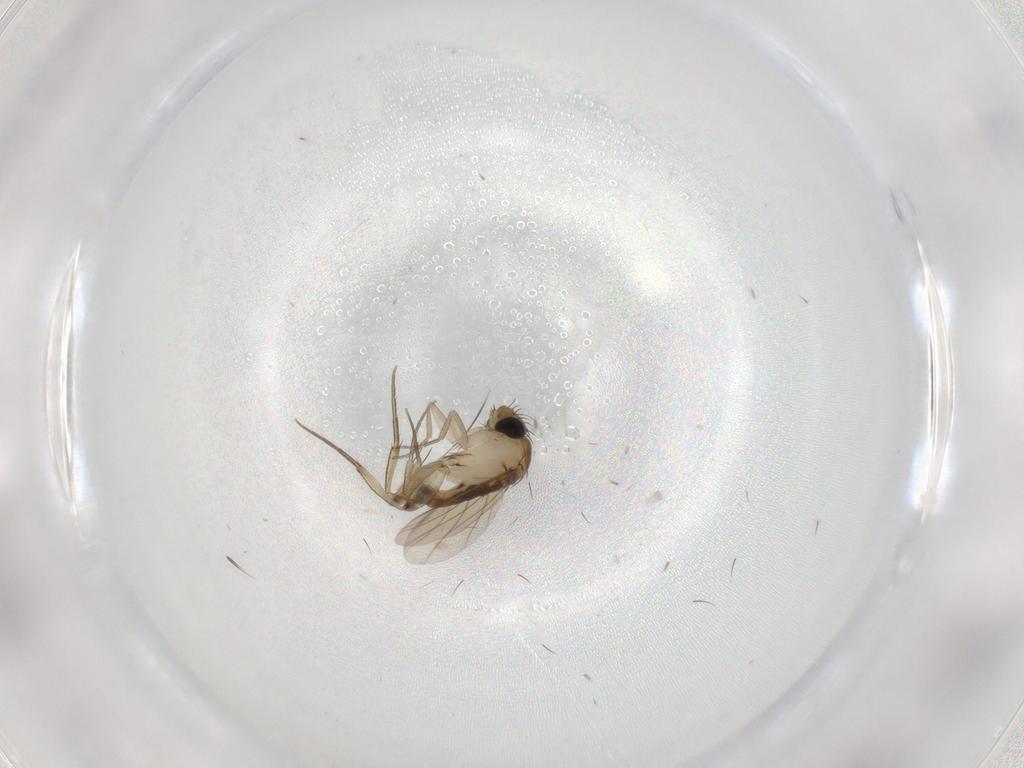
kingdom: Animalia
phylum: Arthropoda
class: Insecta
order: Diptera
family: Phoridae
